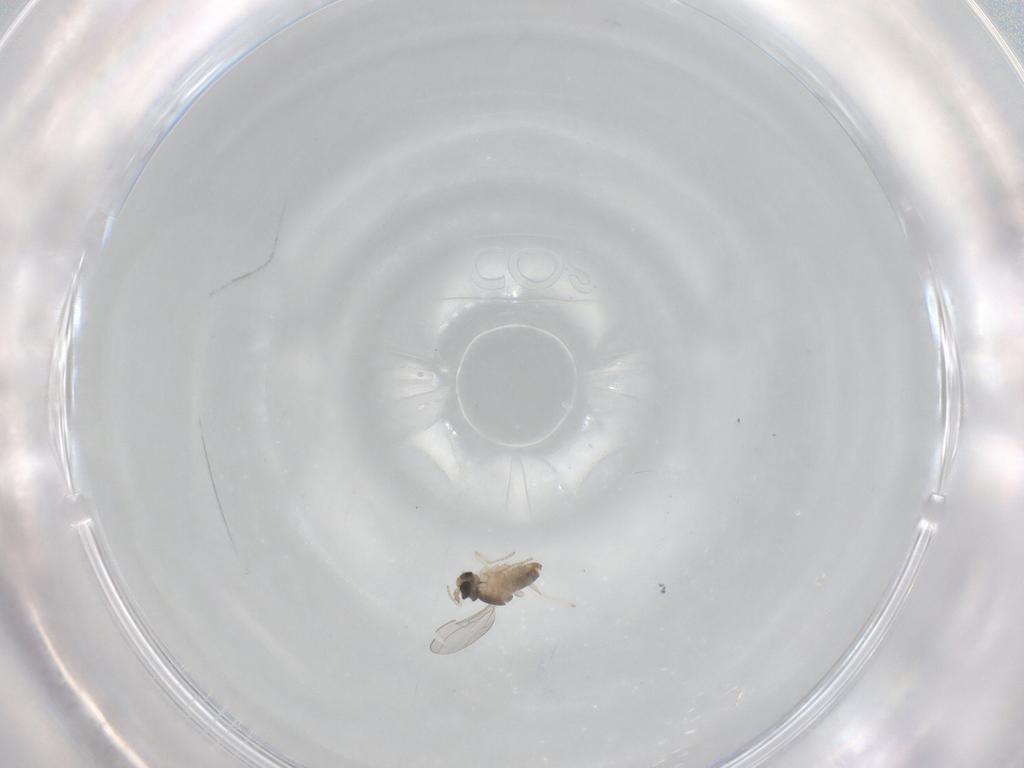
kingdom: Animalia
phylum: Arthropoda
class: Insecta
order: Diptera
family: Cecidomyiidae
